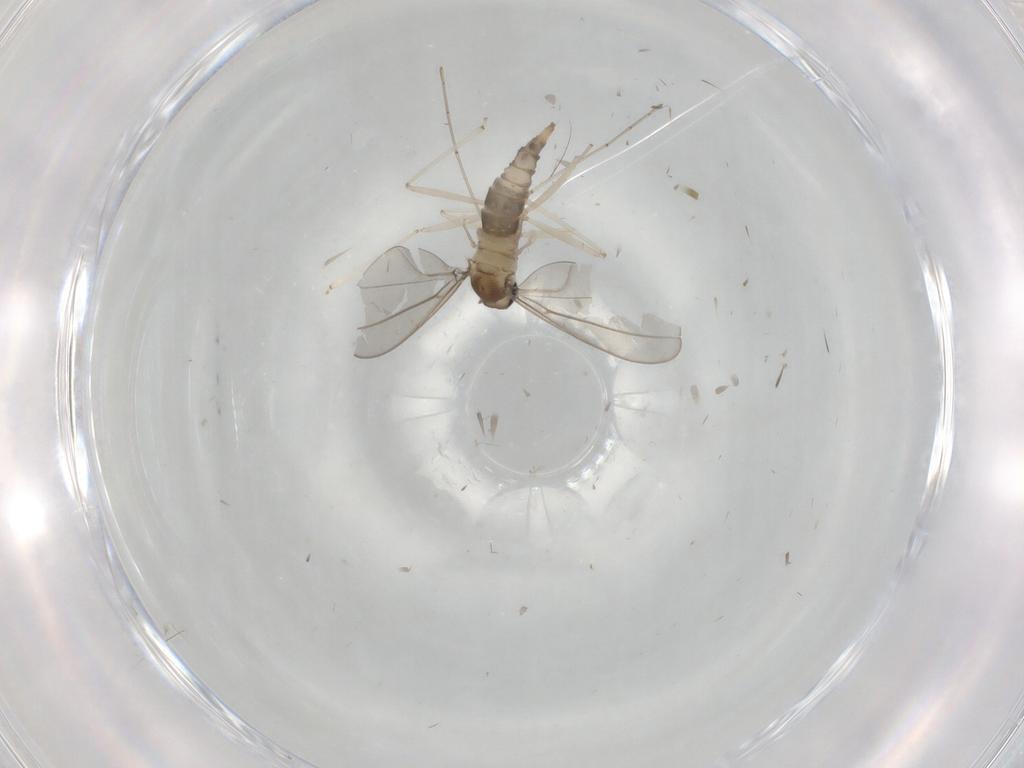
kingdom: Animalia
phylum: Arthropoda
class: Insecta
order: Diptera
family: Cecidomyiidae
